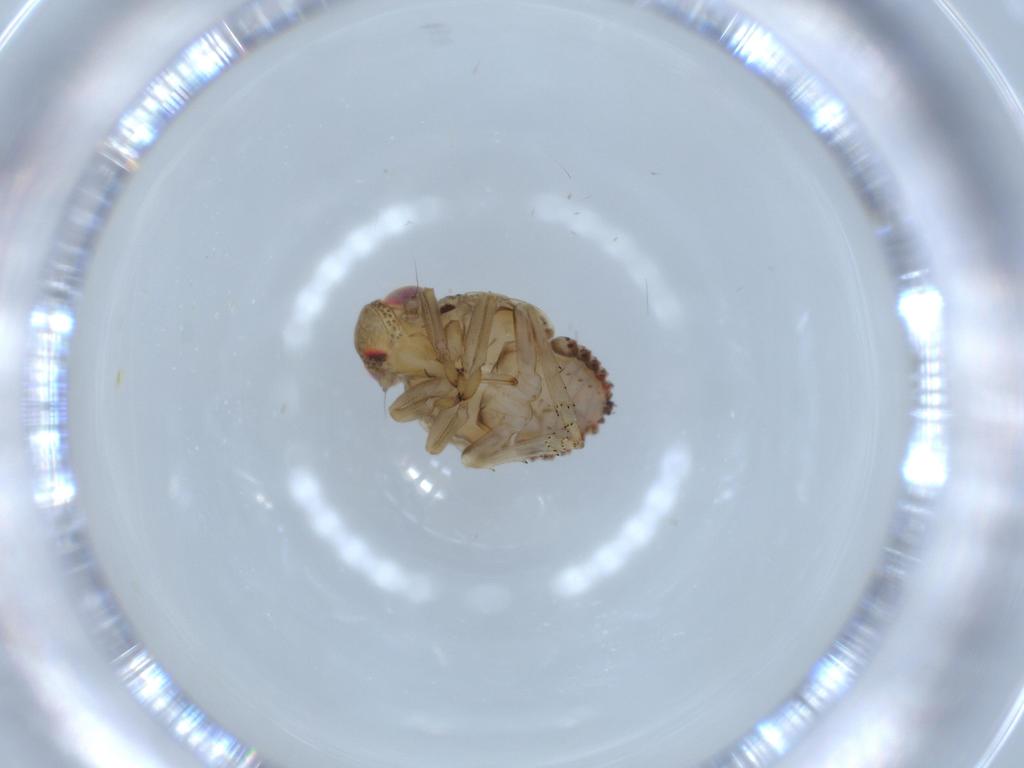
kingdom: Animalia
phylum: Arthropoda
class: Insecta
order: Hemiptera
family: Issidae
